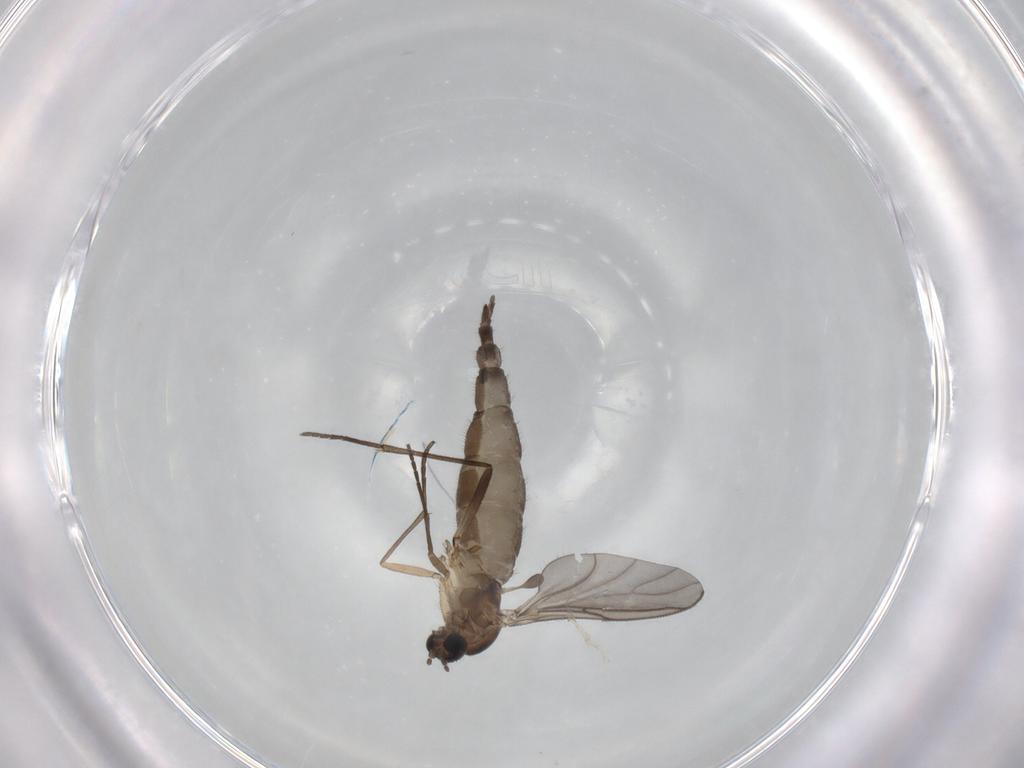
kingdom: Animalia
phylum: Arthropoda
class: Insecta
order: Diptera
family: Sciaridae
